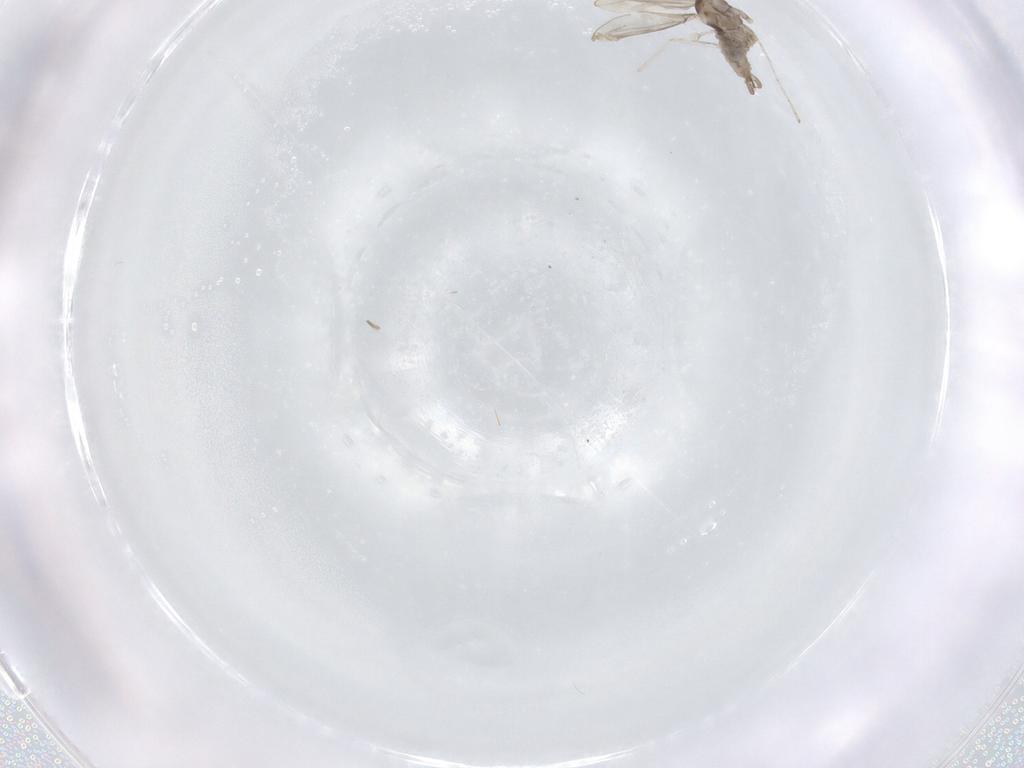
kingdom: Animalia
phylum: Arthropoda
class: Insecta
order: Diptera
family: Cecidomyiidae
